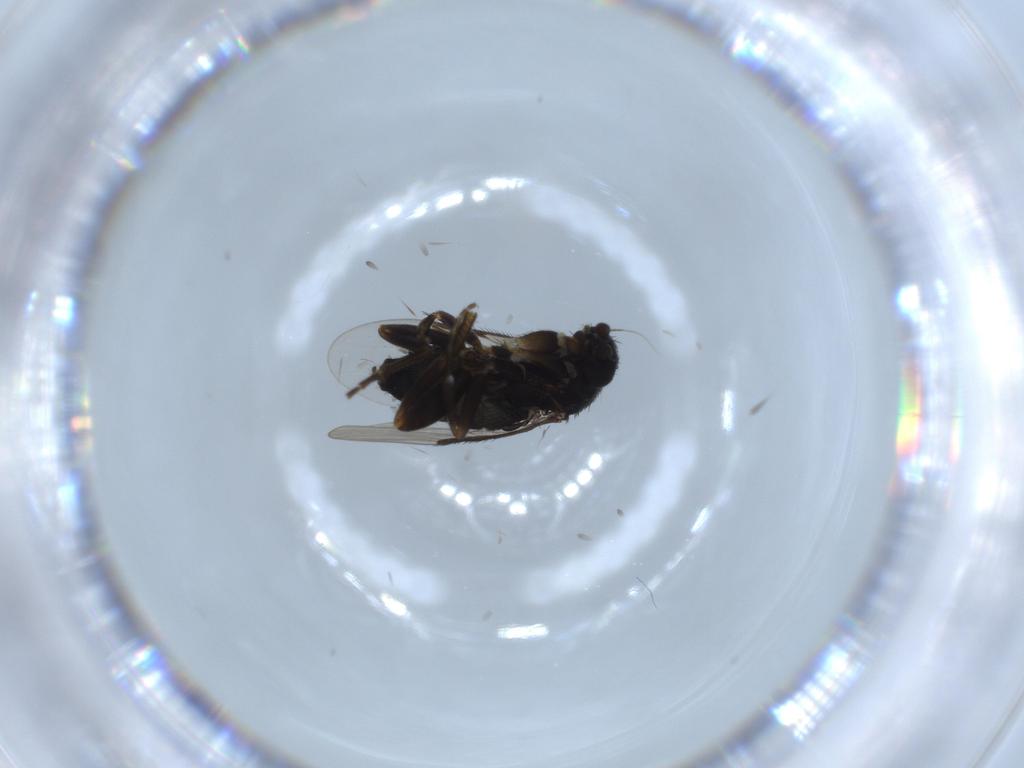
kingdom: Animalia
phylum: Arthropoda
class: Insecta
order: Diptera
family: Phoridae
